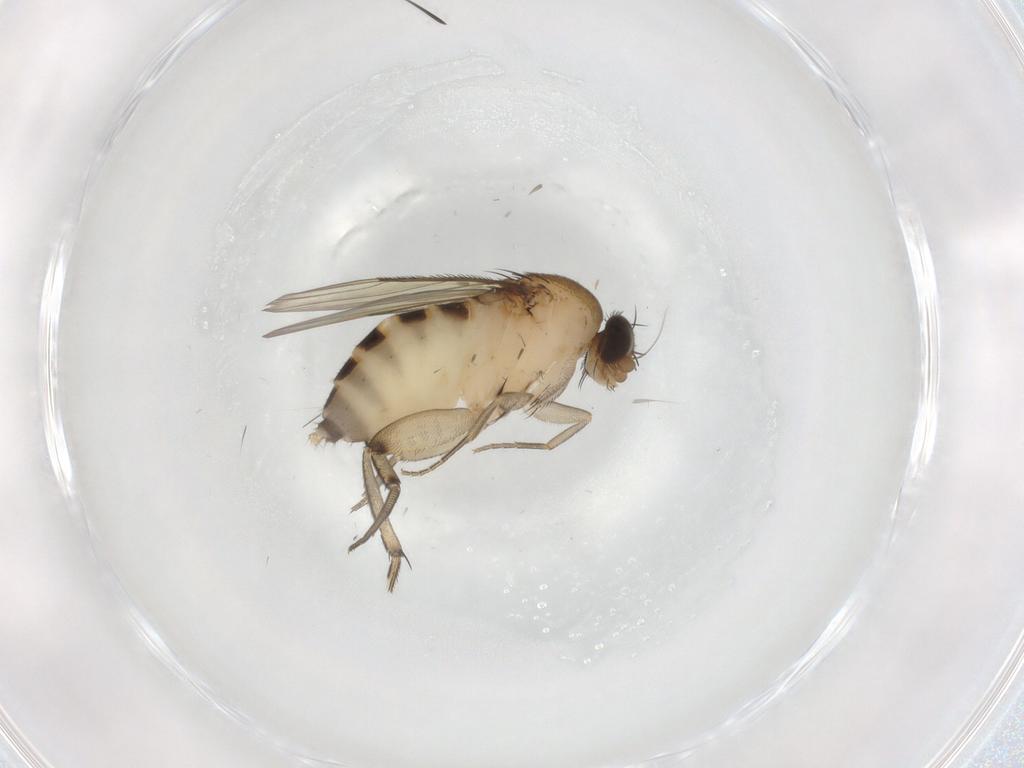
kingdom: Animalia
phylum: Arthropoda
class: Insecta
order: Diptera
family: Phoridae
